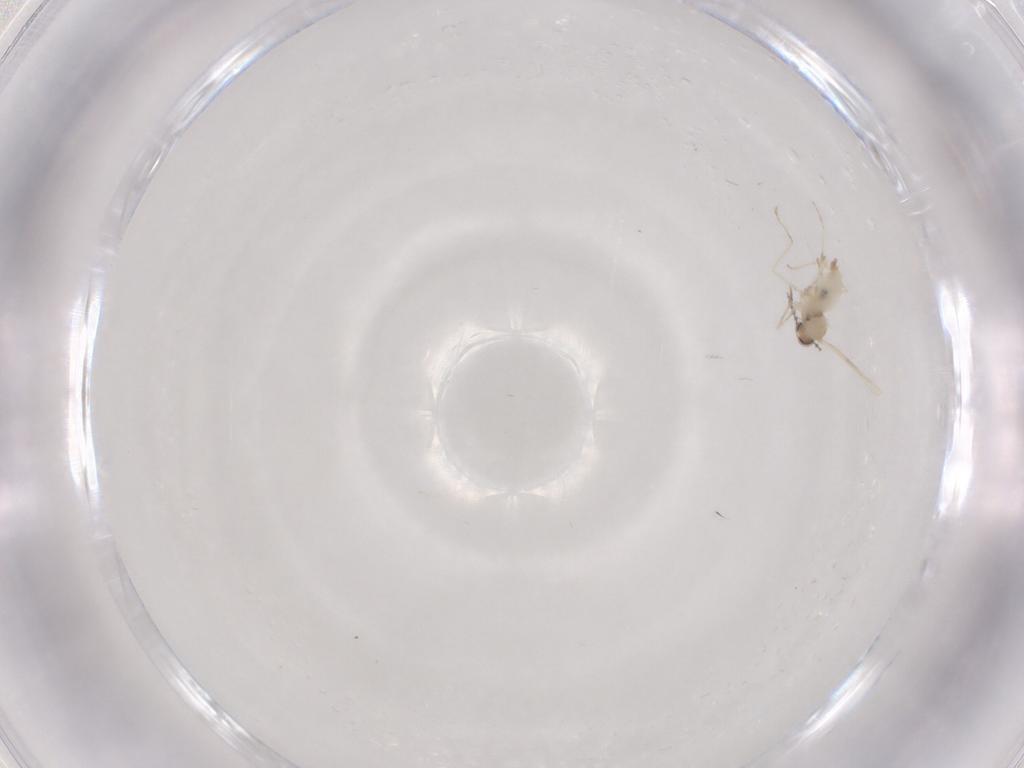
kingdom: Animalia
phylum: Arthropoda
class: Insecta
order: Diptera
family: Cecidomyiidae
